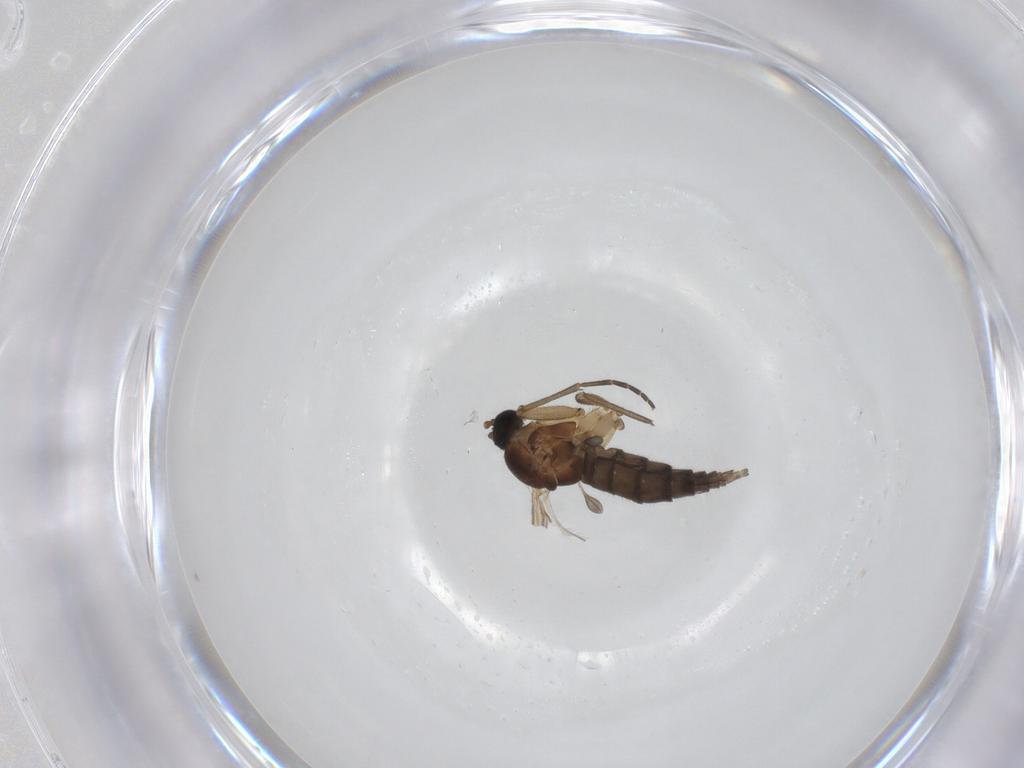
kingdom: Animalia
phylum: Arthropoda
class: Insecta
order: Diptera
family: Sciaridae
